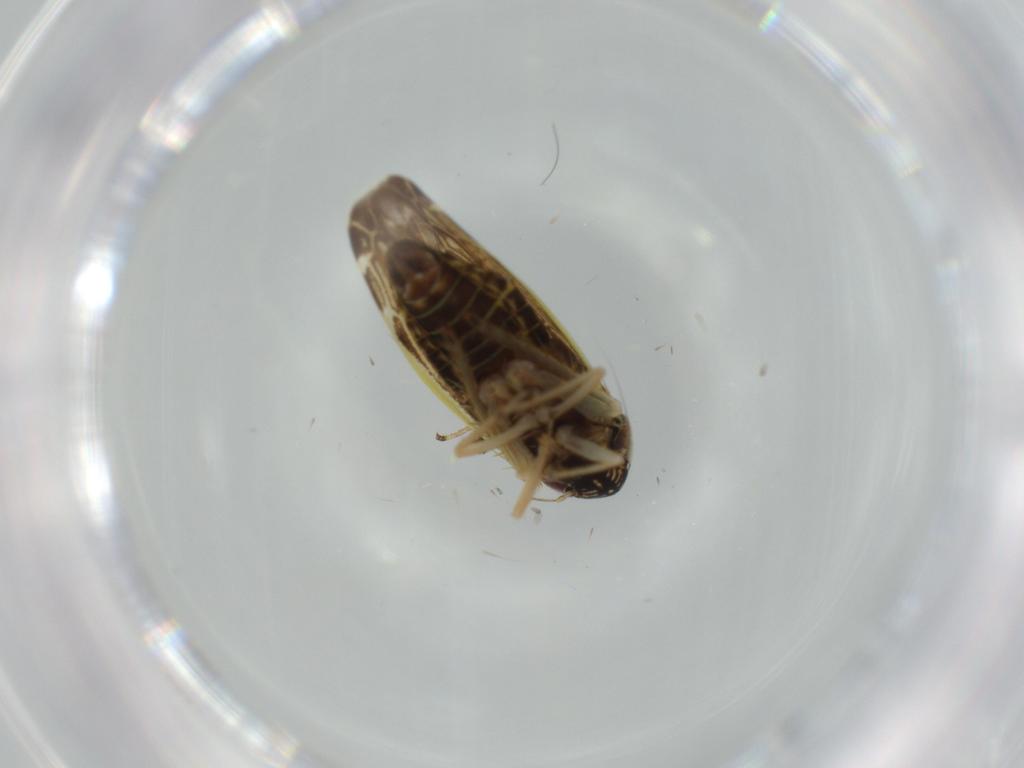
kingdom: Animalia
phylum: Arthropoda
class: Insecta
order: Hemiptera
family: Cicadellidae
